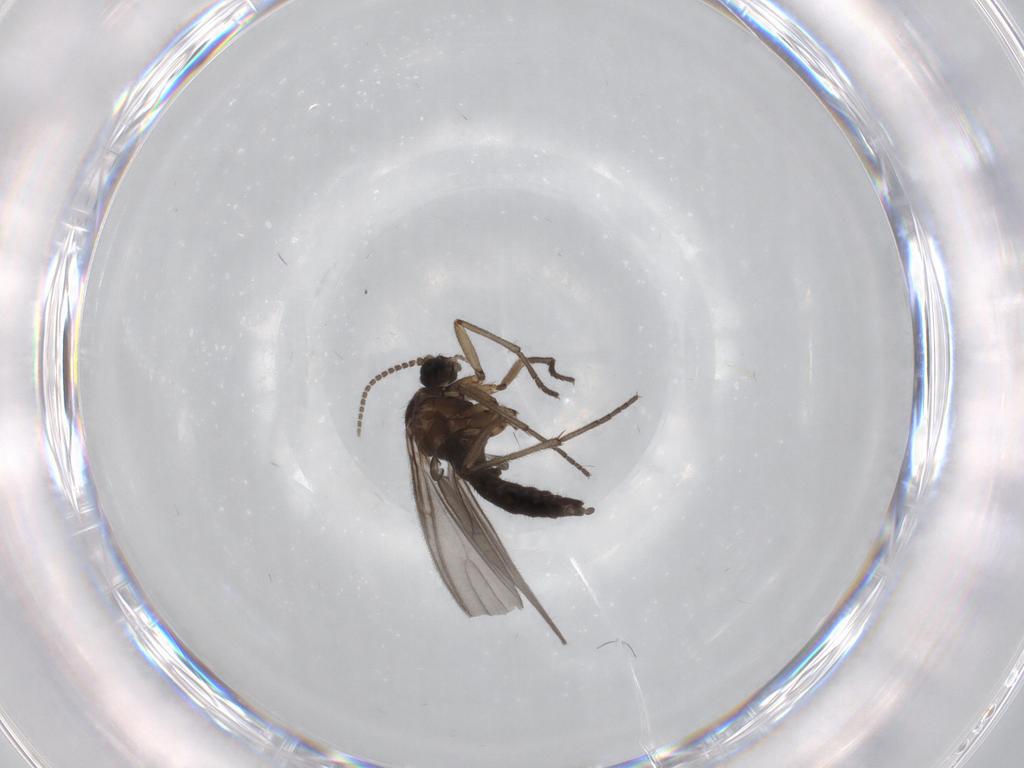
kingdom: Animalia
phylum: Arthropoda
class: Insecta
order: Diptera
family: Sciaridae
